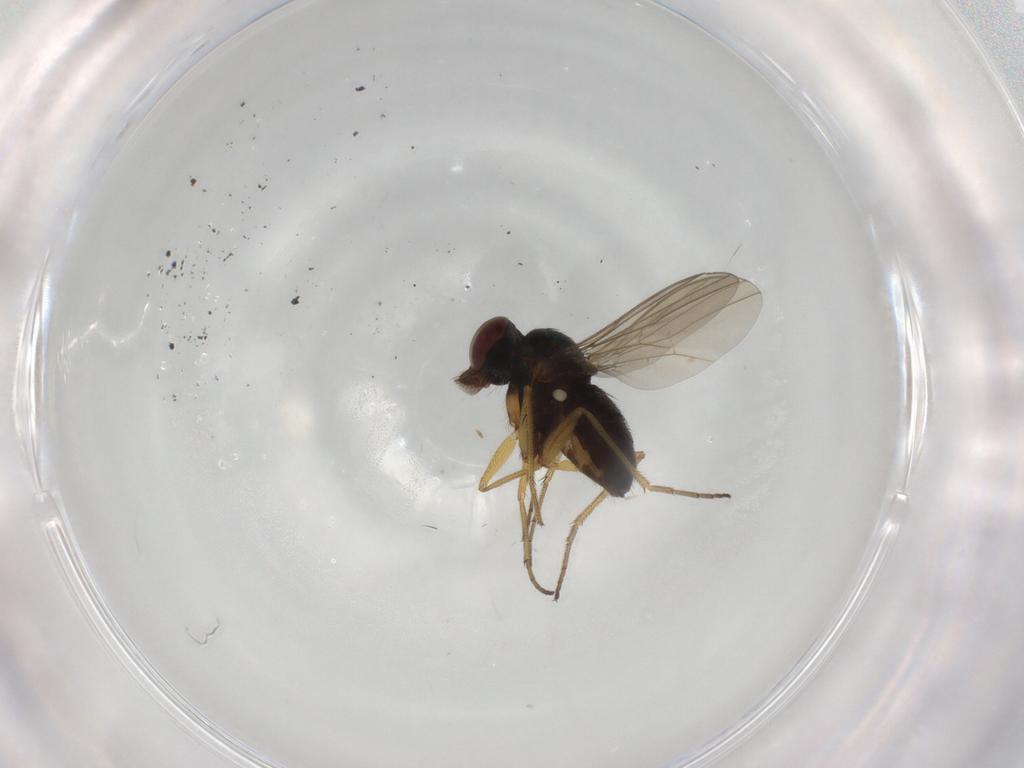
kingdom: Animalia
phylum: Arthropoda
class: Insecta
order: Diptera
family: Dolichopodidae
